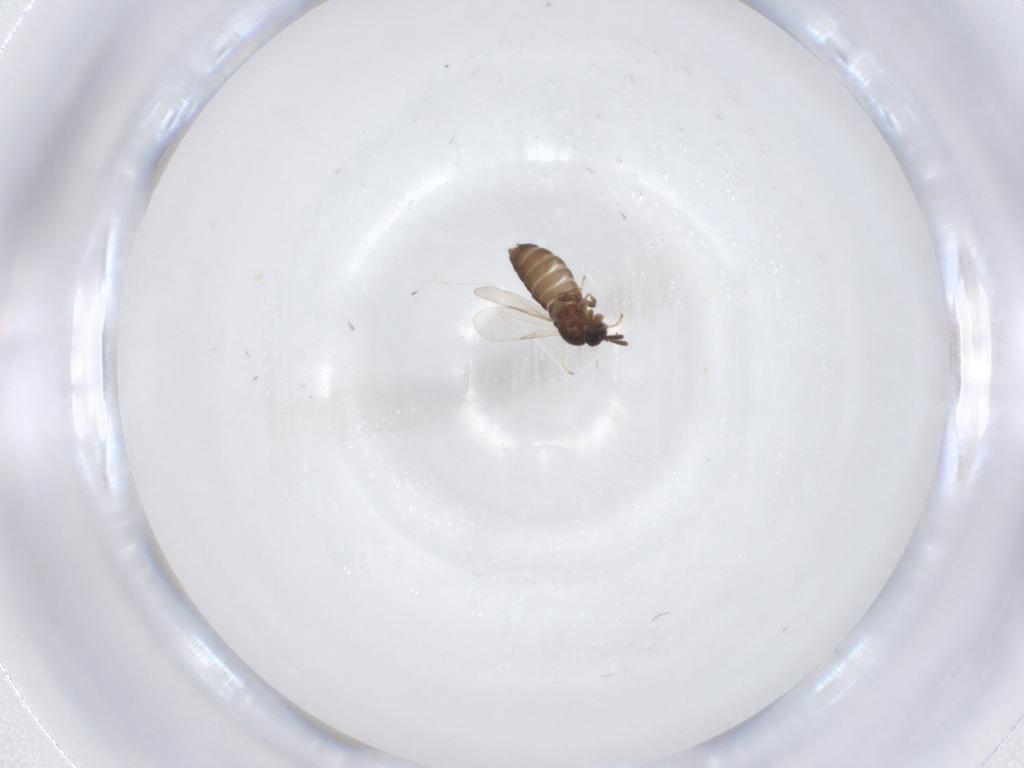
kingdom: Animalia
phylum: Arthropoda
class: Insecta
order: Diptera
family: Scatopsidae
